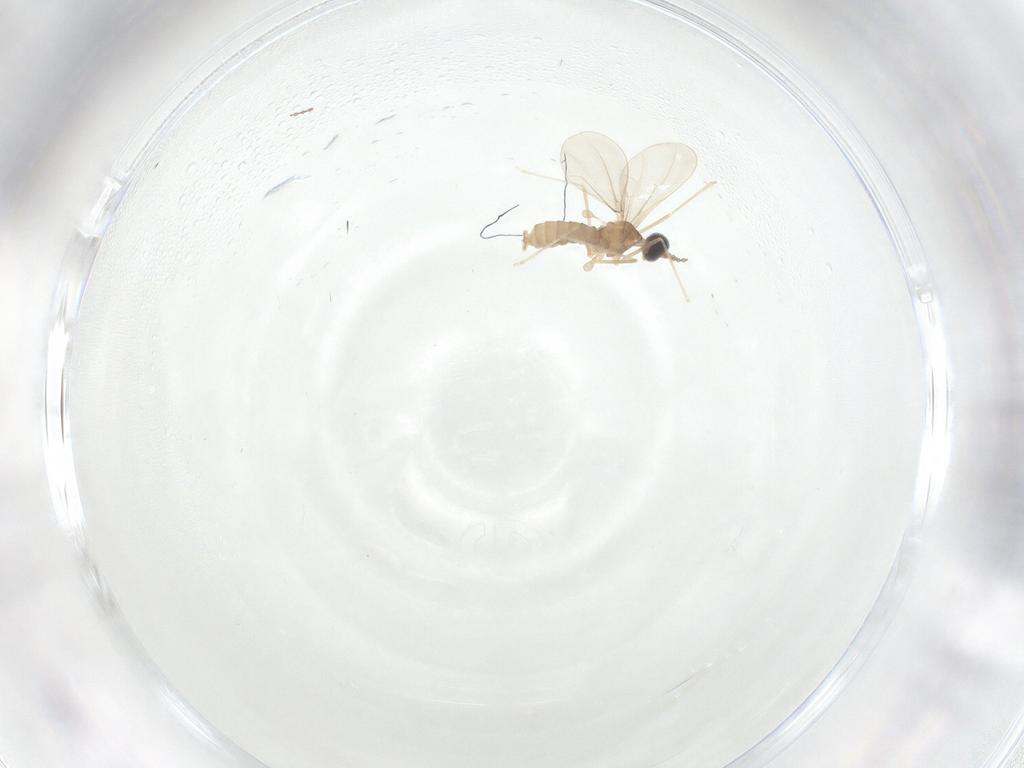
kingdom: Animalia
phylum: Arthropoda
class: Insecta
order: Diptera
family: Cecidomyiidae
